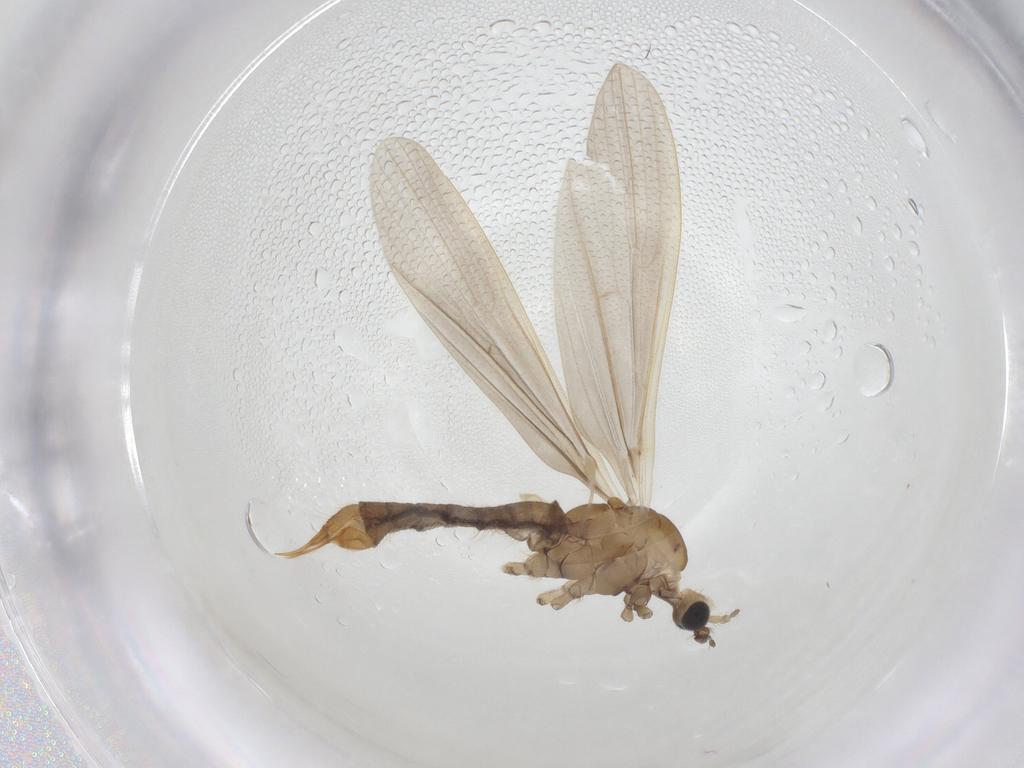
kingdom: Animalia
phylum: Arthropoda
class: Insecta
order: Diptera
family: Limoniidae
